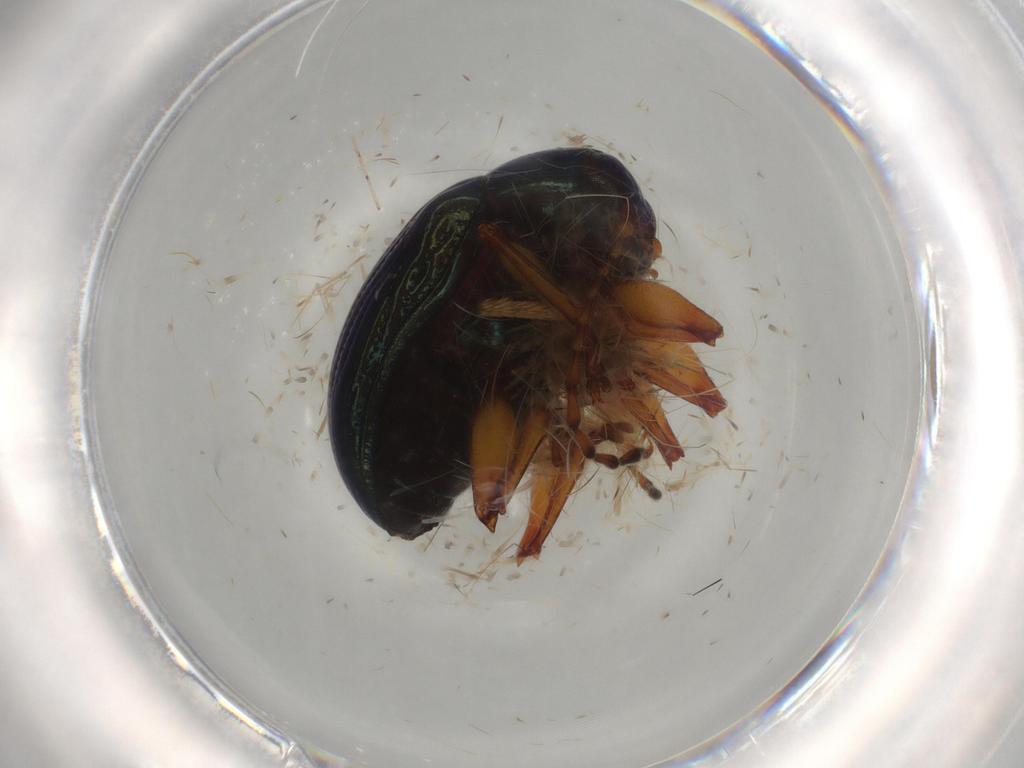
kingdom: Animalia
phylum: Arthropoda
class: Insecta
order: Coleoptera
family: Chrysomelidae
